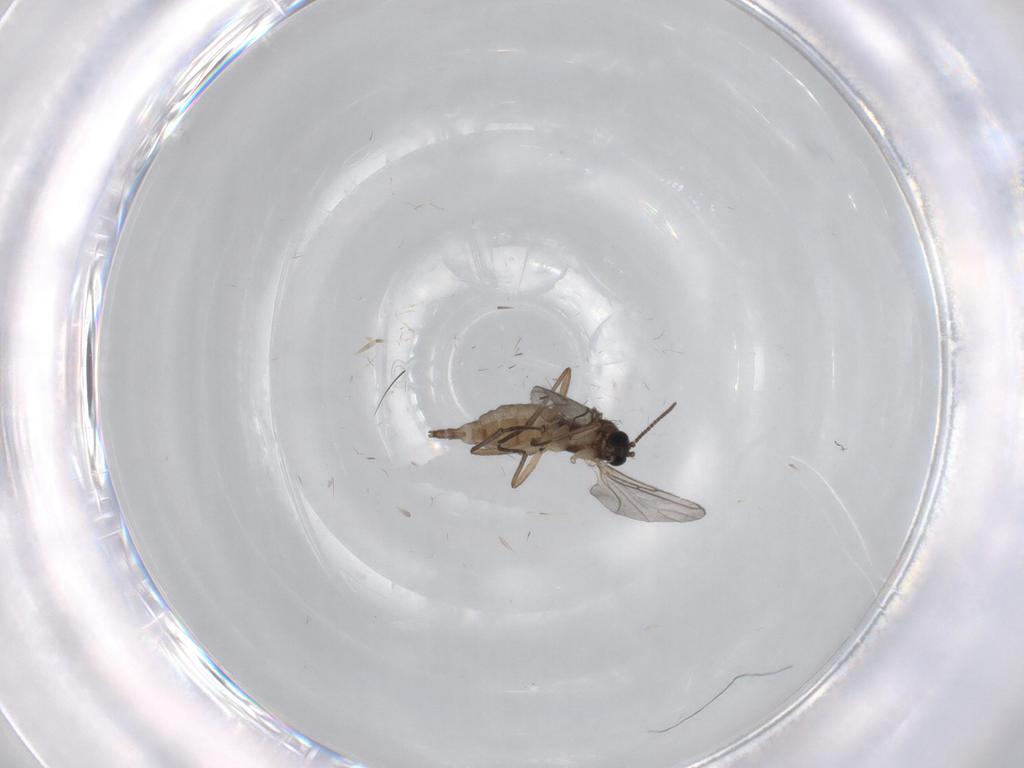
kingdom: Animalia
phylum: Arthropoda
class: Insecta
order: Diptera
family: Sciaridae
